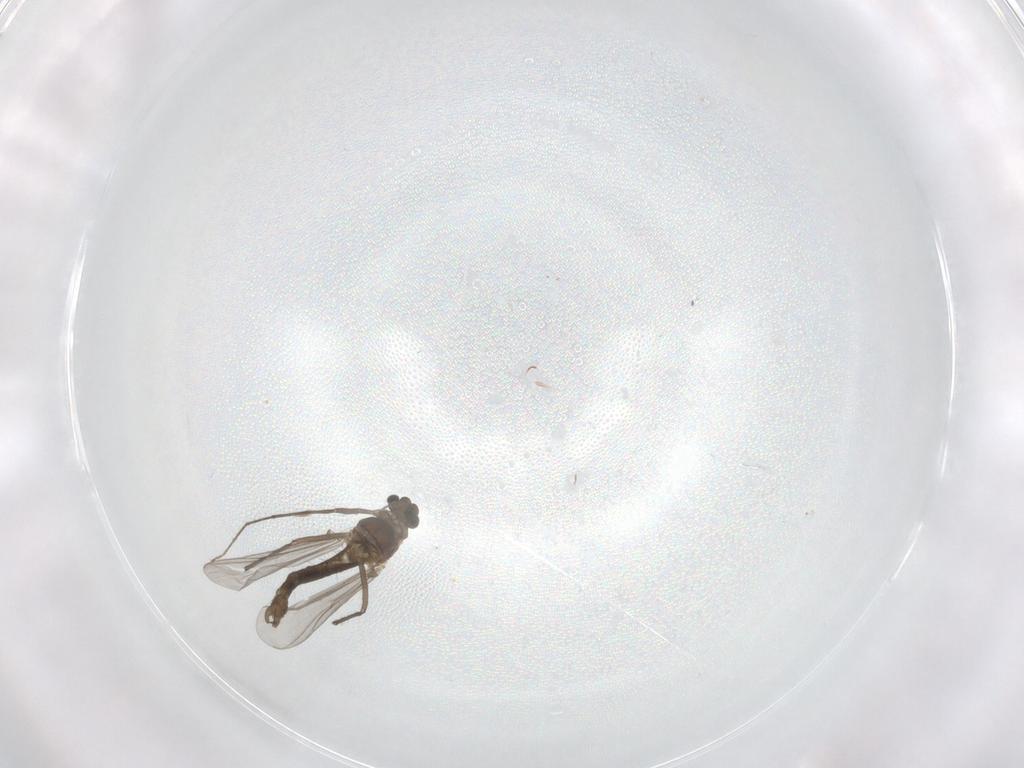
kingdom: Animalia
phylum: Arthropoda
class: Insecta
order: Diptera
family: Chironomidae
